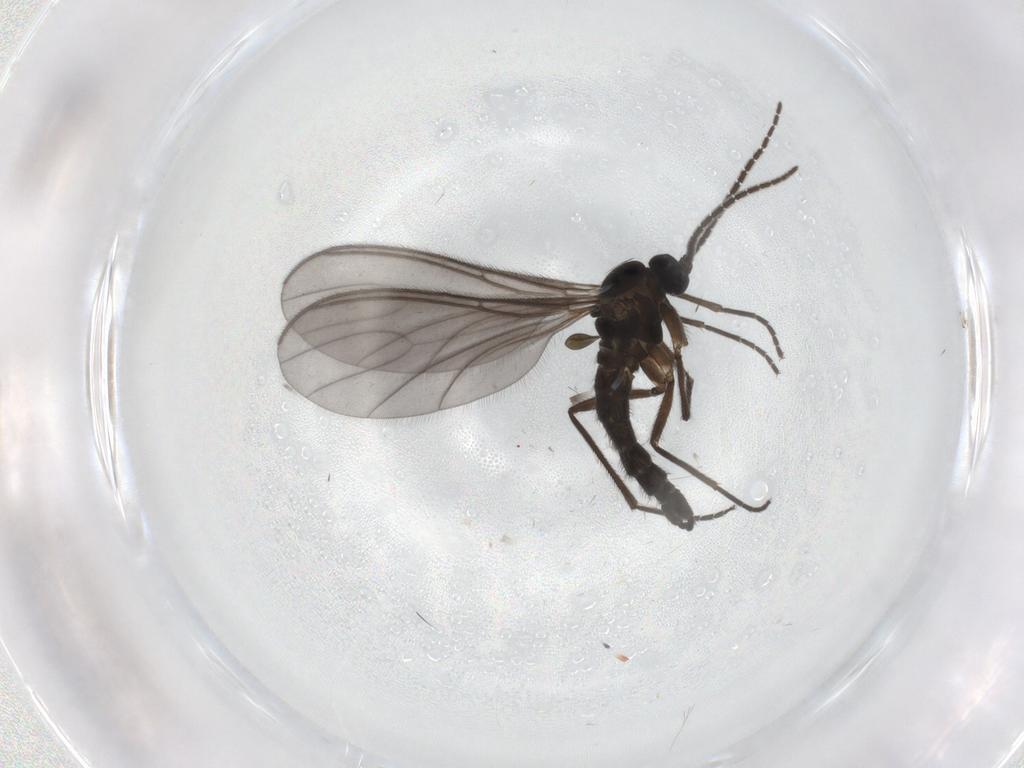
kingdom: Animalia
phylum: Arthropoda
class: Insecta
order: Diptera
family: Sciaridae
